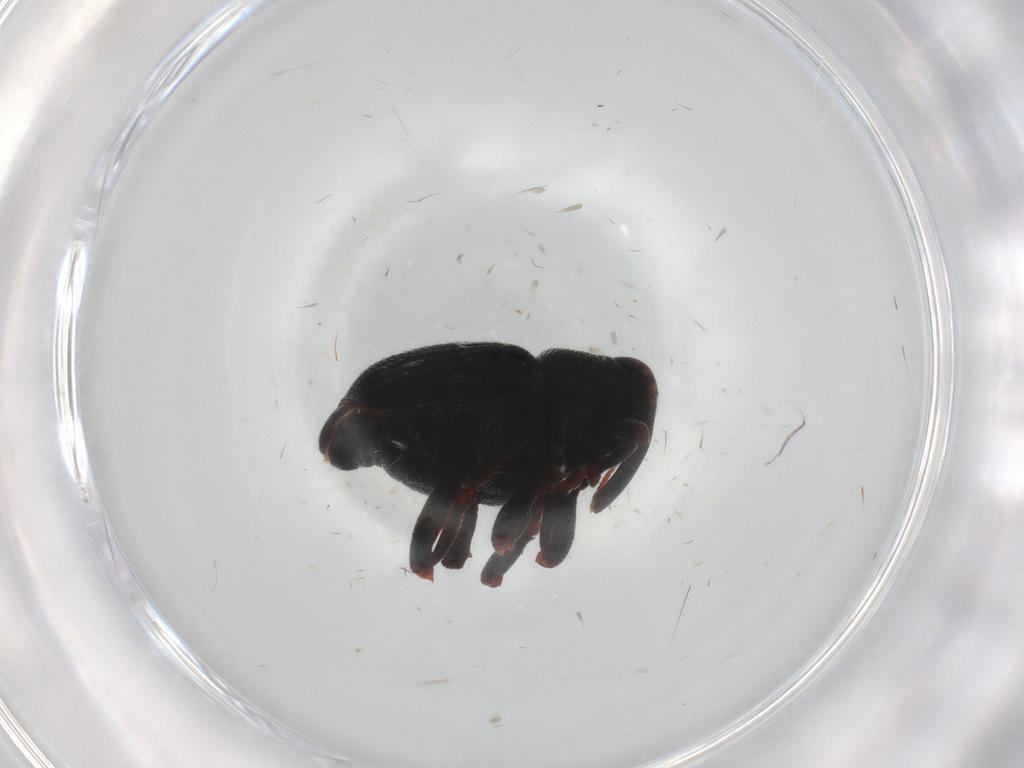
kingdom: Animalia
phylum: Arthropoda
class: Insecta
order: Coleoptera
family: Curculionidae
